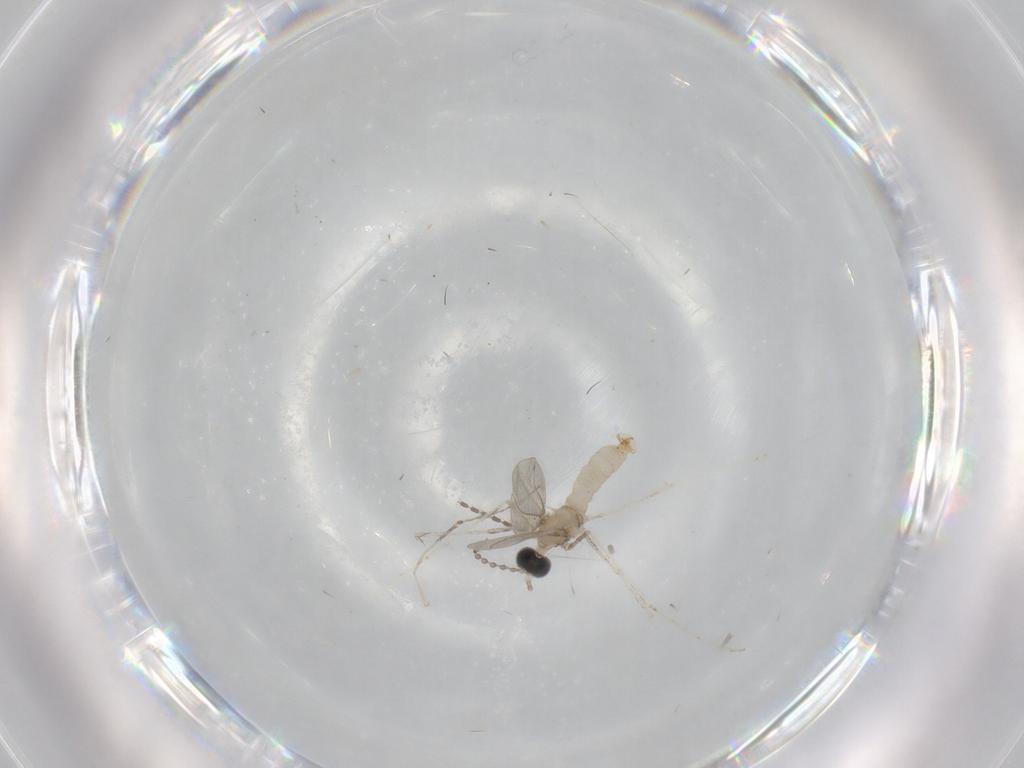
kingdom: Animalia
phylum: Arthropoda
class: Insecta
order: Diptera
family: Cecidomyiidae
